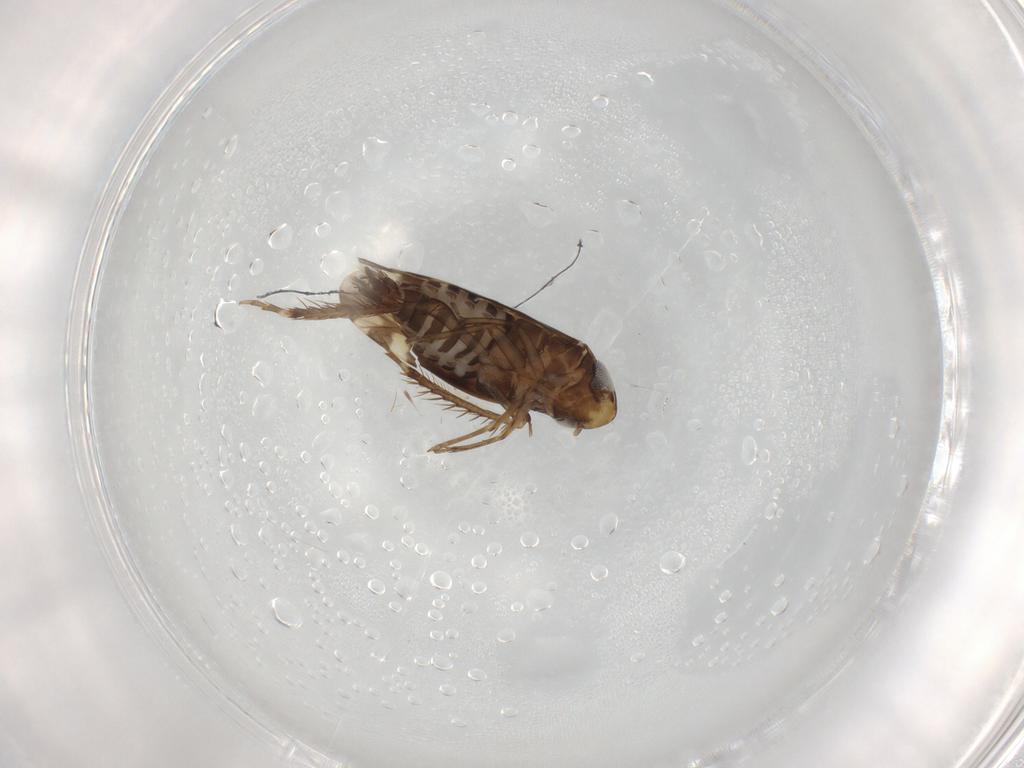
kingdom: Animalia
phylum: Arthropoda
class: Insecta
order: Hemiptera
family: Cicadellidae
